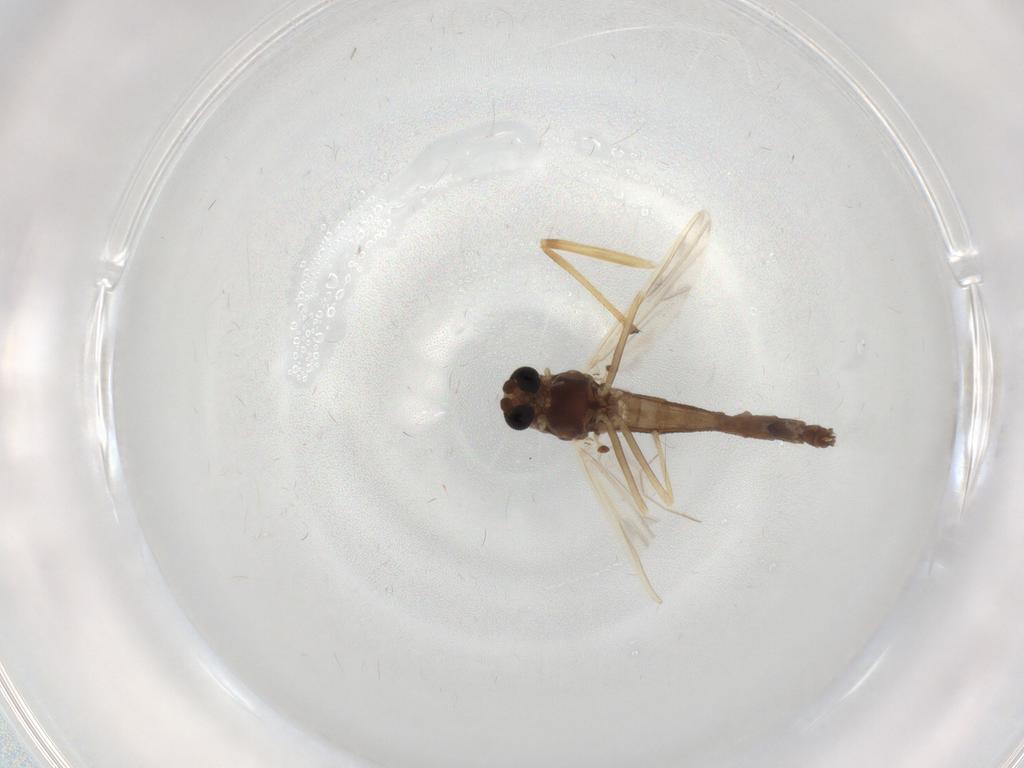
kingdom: Animalia
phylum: Arthropoda
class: Insecta
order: Diptera
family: Chironomidae
